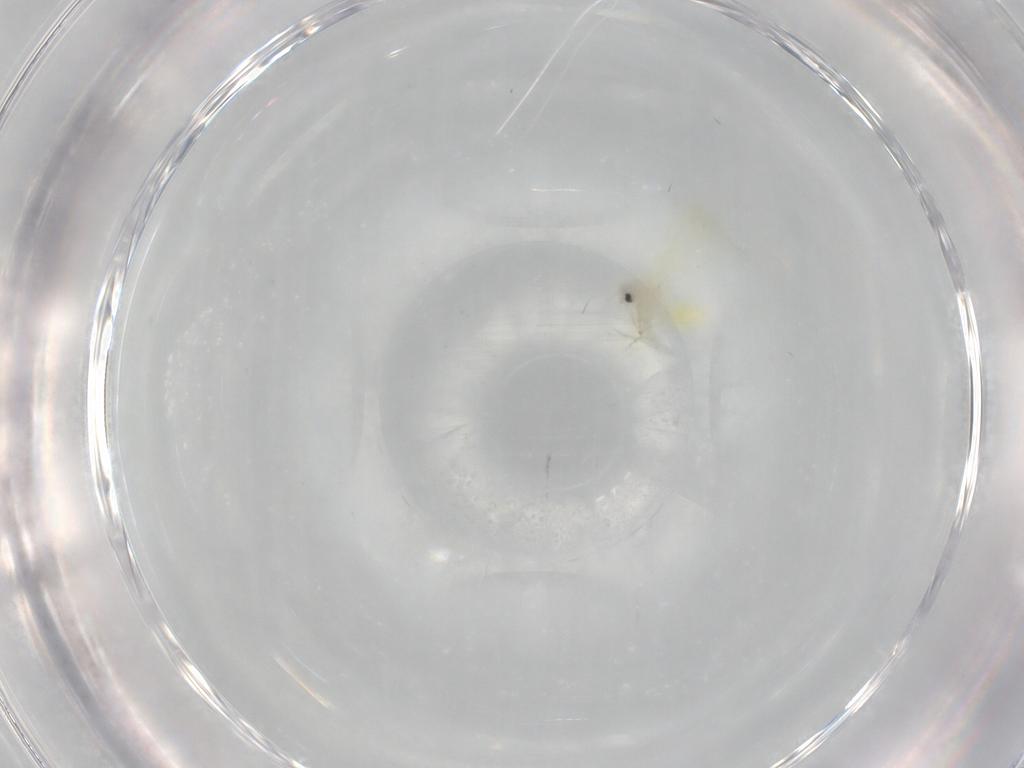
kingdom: Animalia
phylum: Arthropoda
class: Insecta
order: Hemiptera
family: Aleyrodidae
